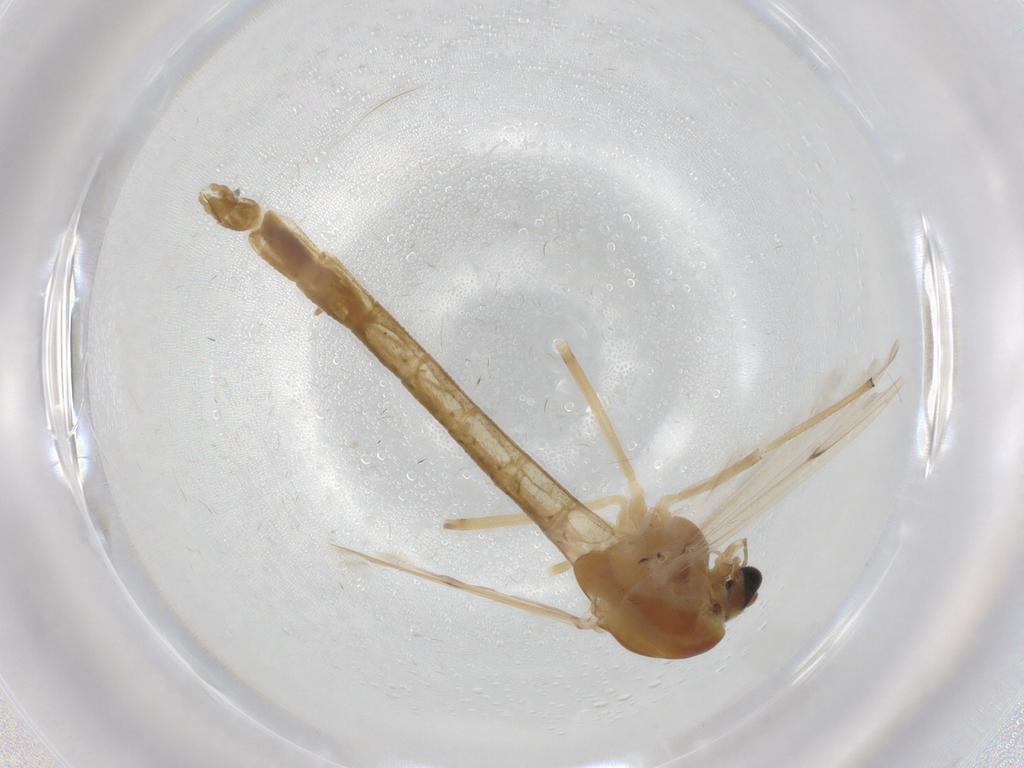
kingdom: Animalia
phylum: Arthropoda
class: Insecta
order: Diptera
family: Chironomidae
